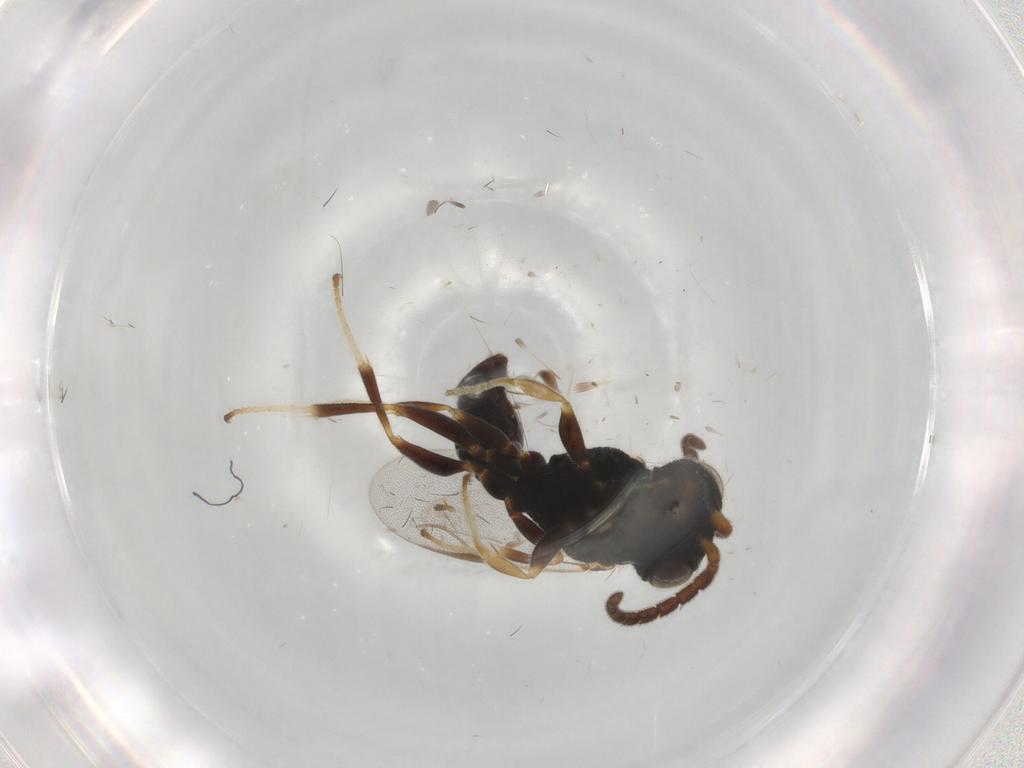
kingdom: Animalia
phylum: Arthropoda
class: Insecta
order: Hymenoptera
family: Dryinidae
